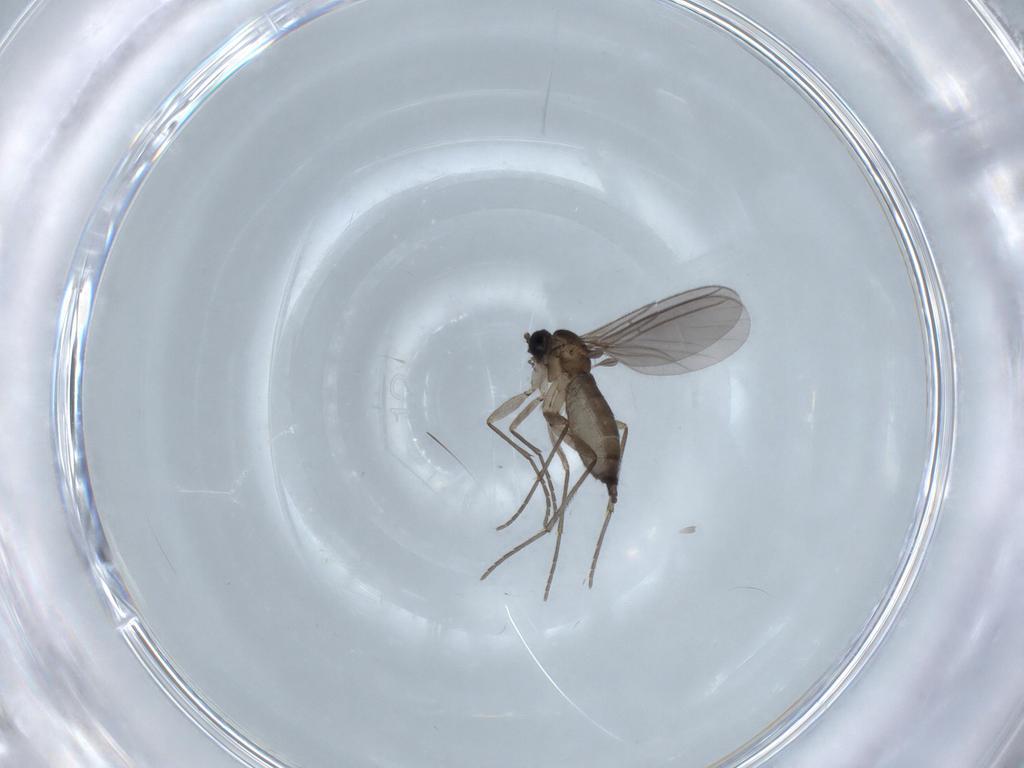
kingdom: Animalia
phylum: Arthropoda
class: Insecta
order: Diptera
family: Sciaridae
